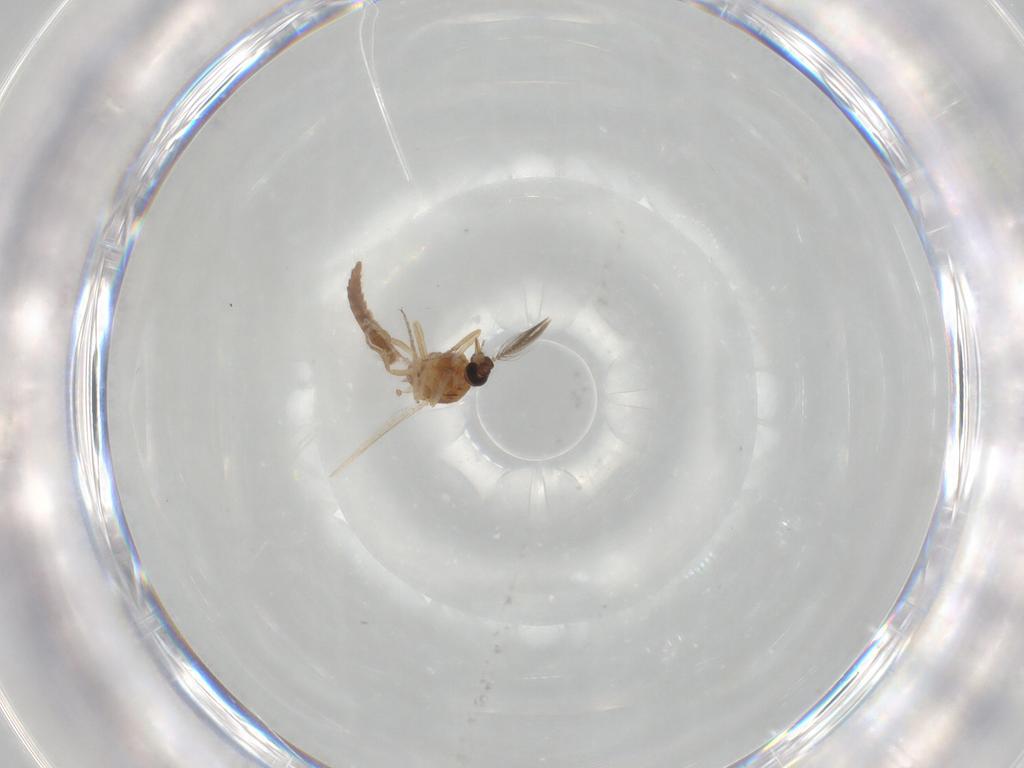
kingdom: Animalia
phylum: Arthropoda
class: Insecta
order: Diptera
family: Ceratopogonidae
